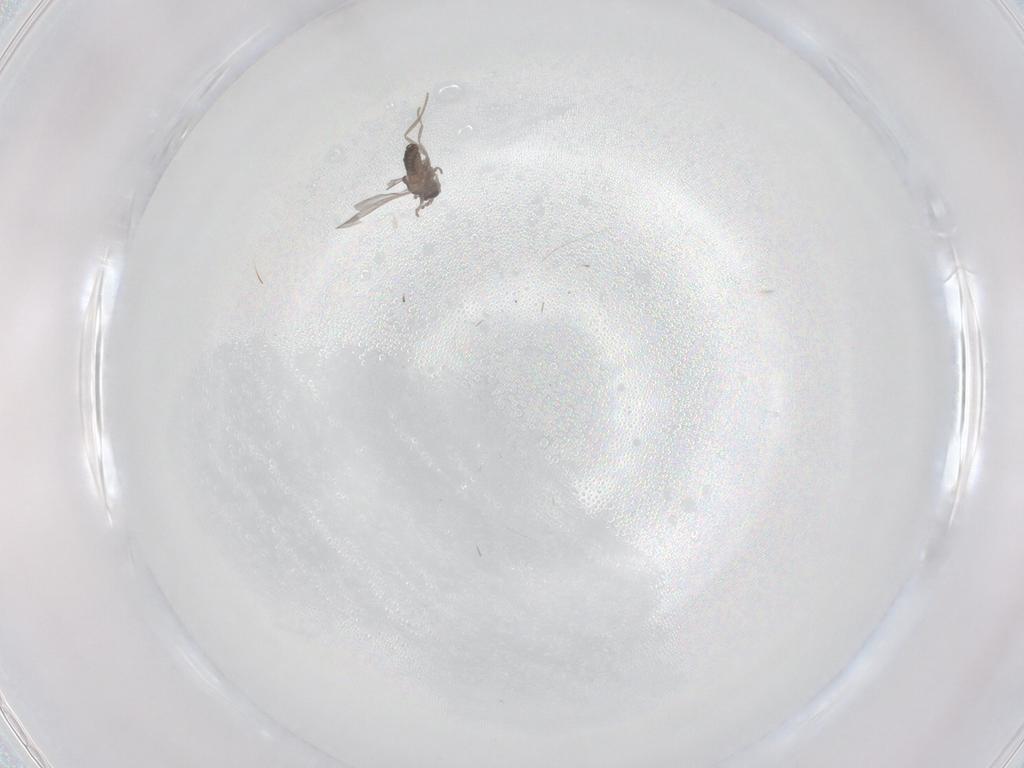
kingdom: Animalia
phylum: Arthropoda
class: Insecta
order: Diptera
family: Cecidomyiidae
